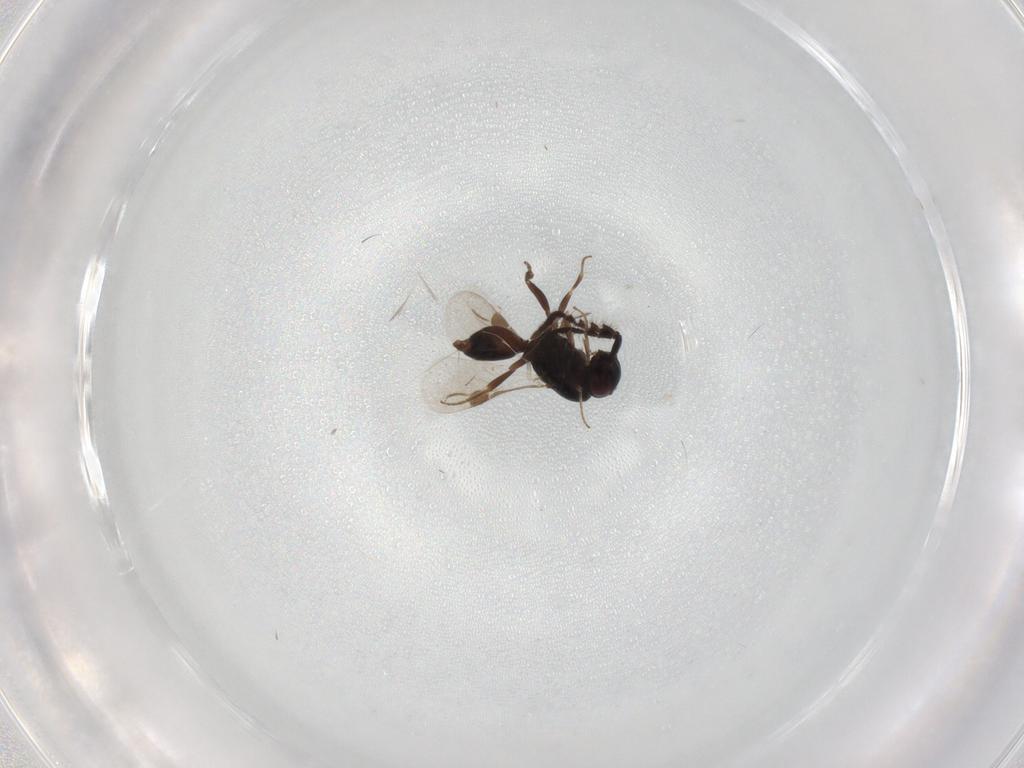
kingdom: Animalia
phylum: Arthropoda
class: Insecta
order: Hymenoptera
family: Megaspilidae
